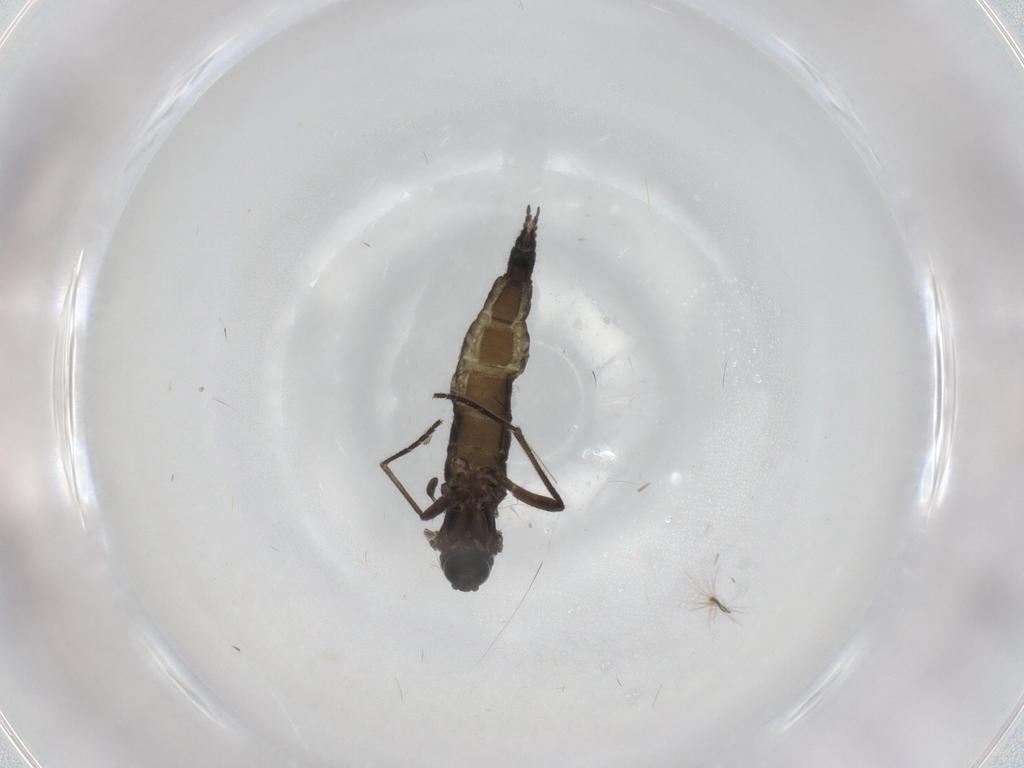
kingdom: Animalia
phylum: Arthropoda
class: Insecta
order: Diptera
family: Sciaridae
